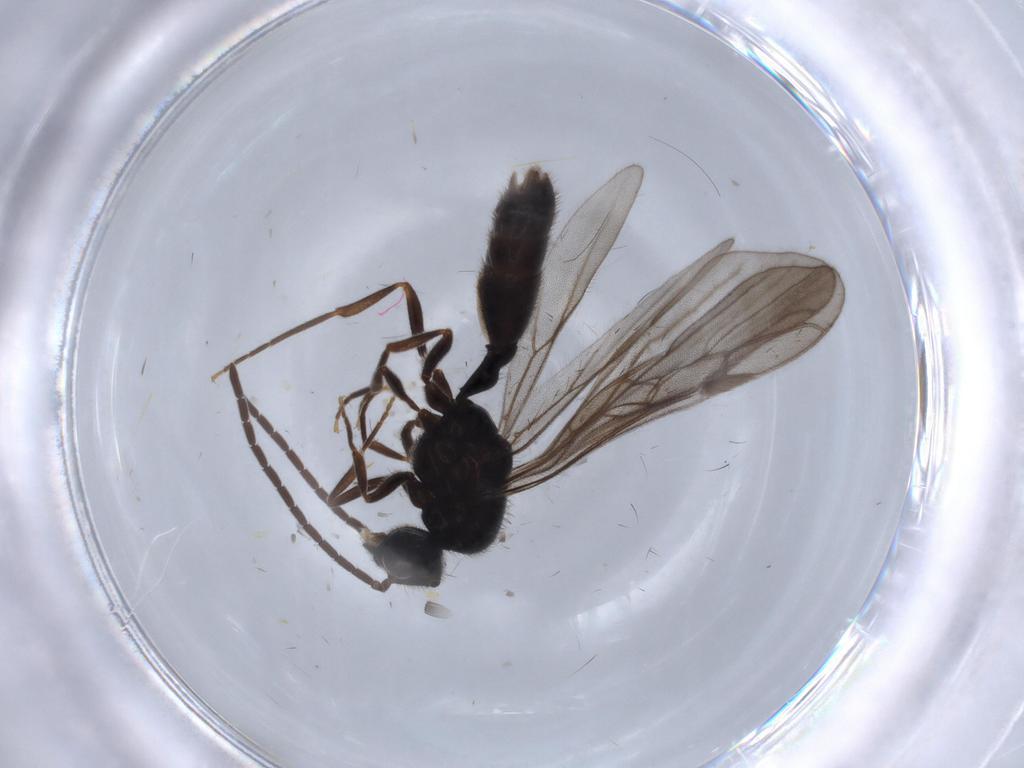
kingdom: Animalia
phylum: Arthropoda
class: Insecta
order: Hymenoptera
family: Formicidae
